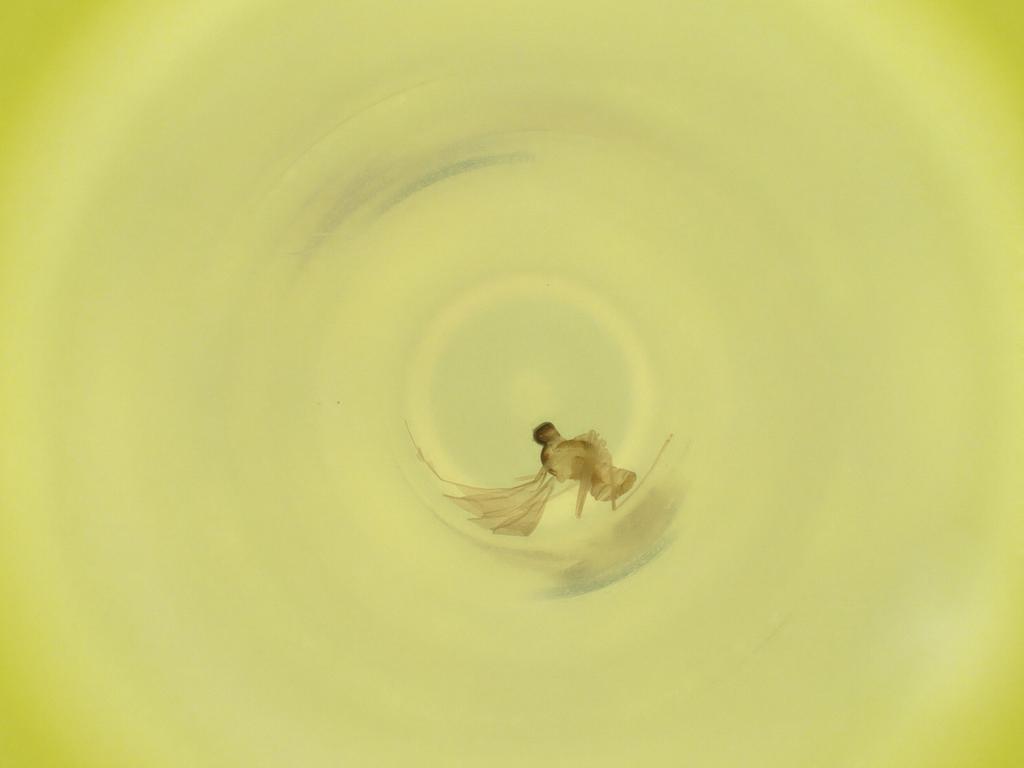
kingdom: Animalia
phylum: Arthropoda
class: Insecta
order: Diptera
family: Cecidomyiidae
